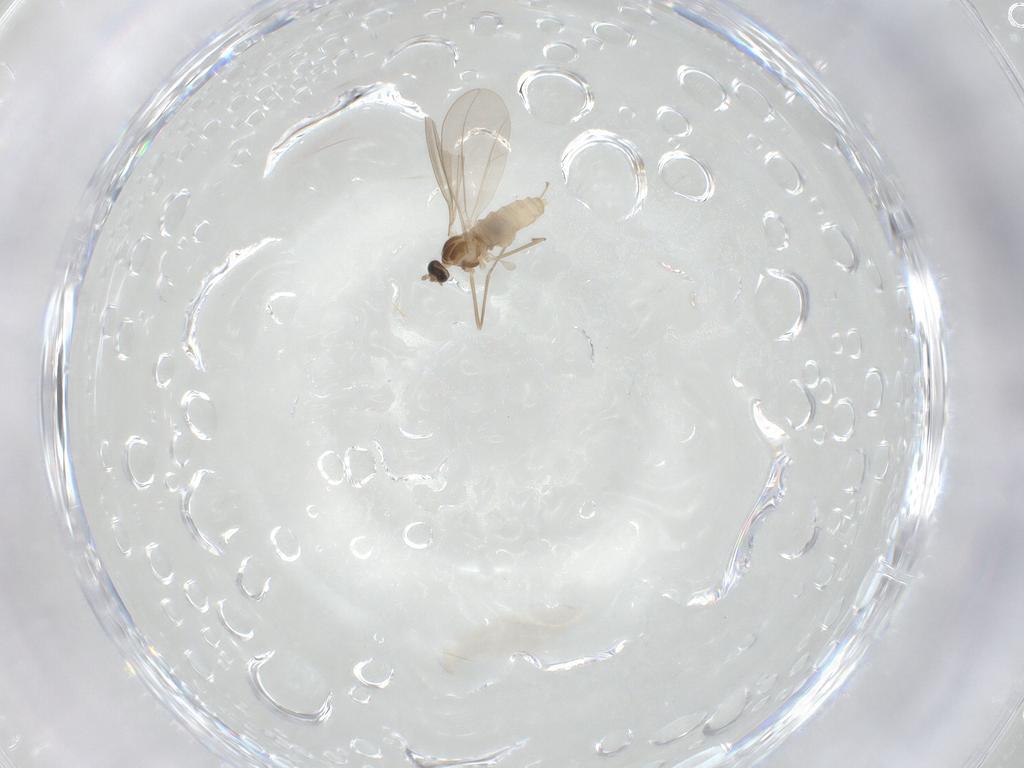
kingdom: Animalia
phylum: Arthropoda
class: Insecta
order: Diptera
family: Cecidomyiidae
